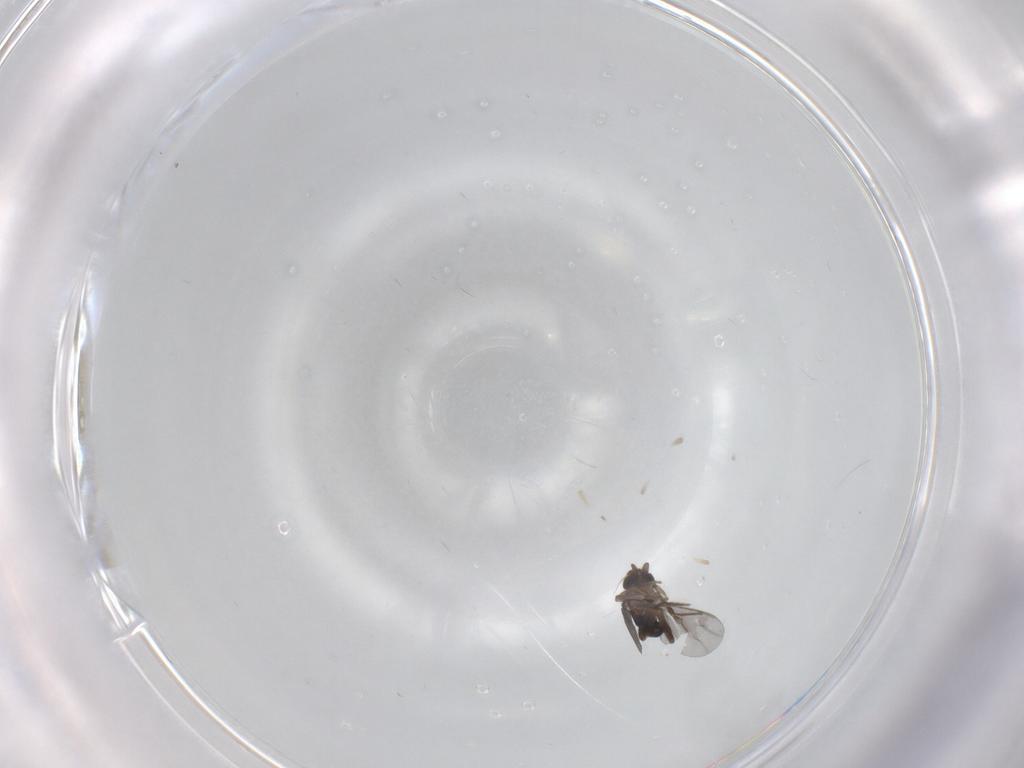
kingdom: Animalia
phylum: Arthropoda
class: Insecta
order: Diptera
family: Phoridae
